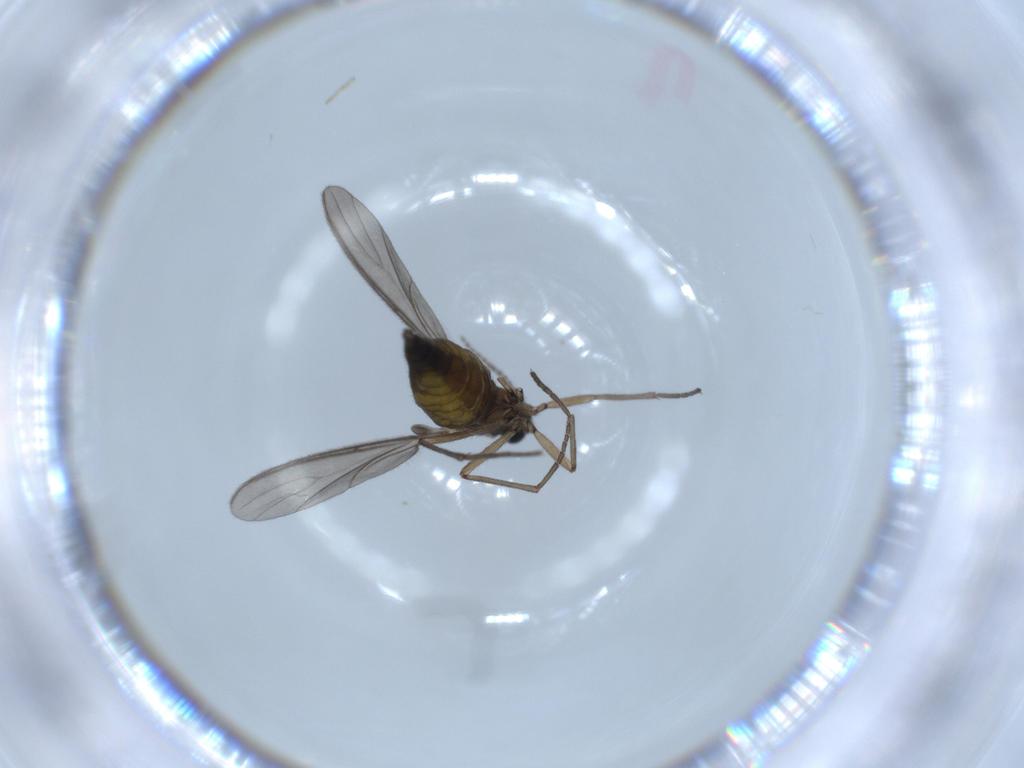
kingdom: Animalia
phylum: Arthropoda
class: Insecta
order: Diptera
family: Sciaridae
